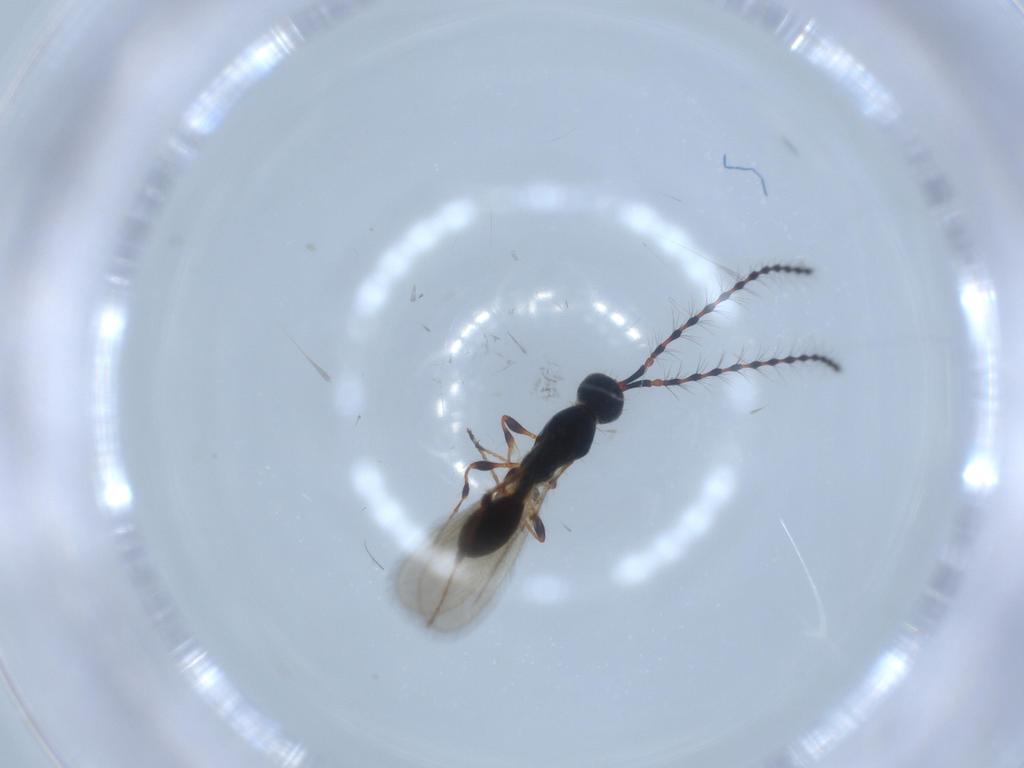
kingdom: Animalia
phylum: Arthropoda
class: Insecta
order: Hymenoptera
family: Diapriidae
